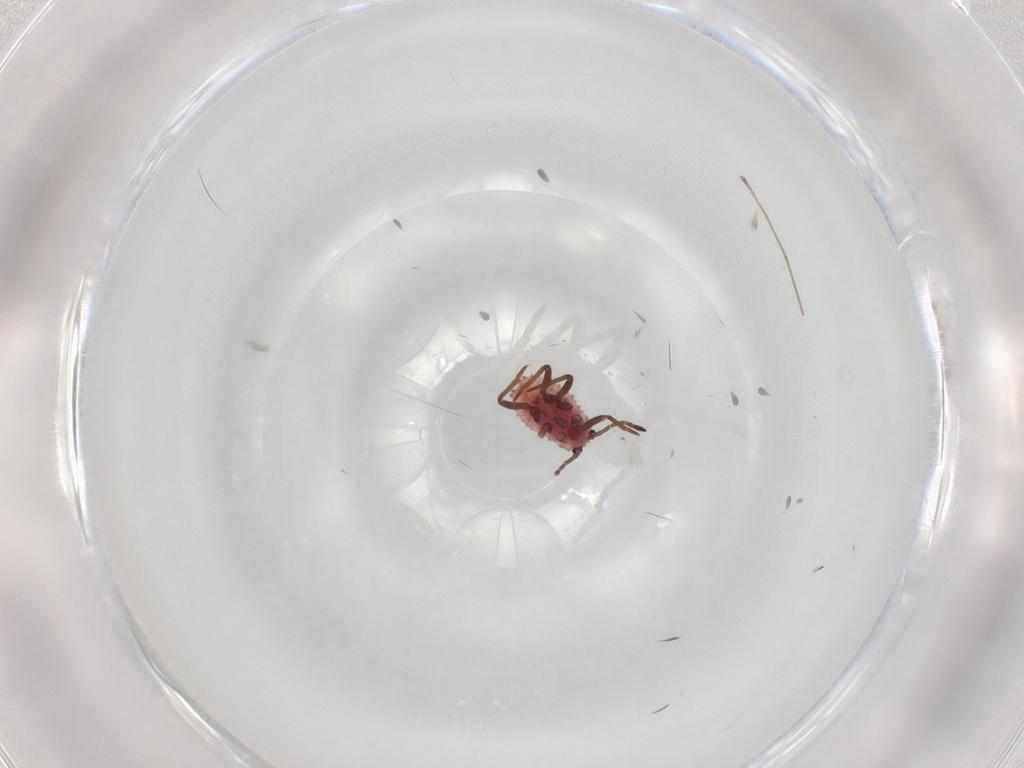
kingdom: Animalia
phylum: Arthropoda
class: Insecta
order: Hemiptera
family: Putoidae
